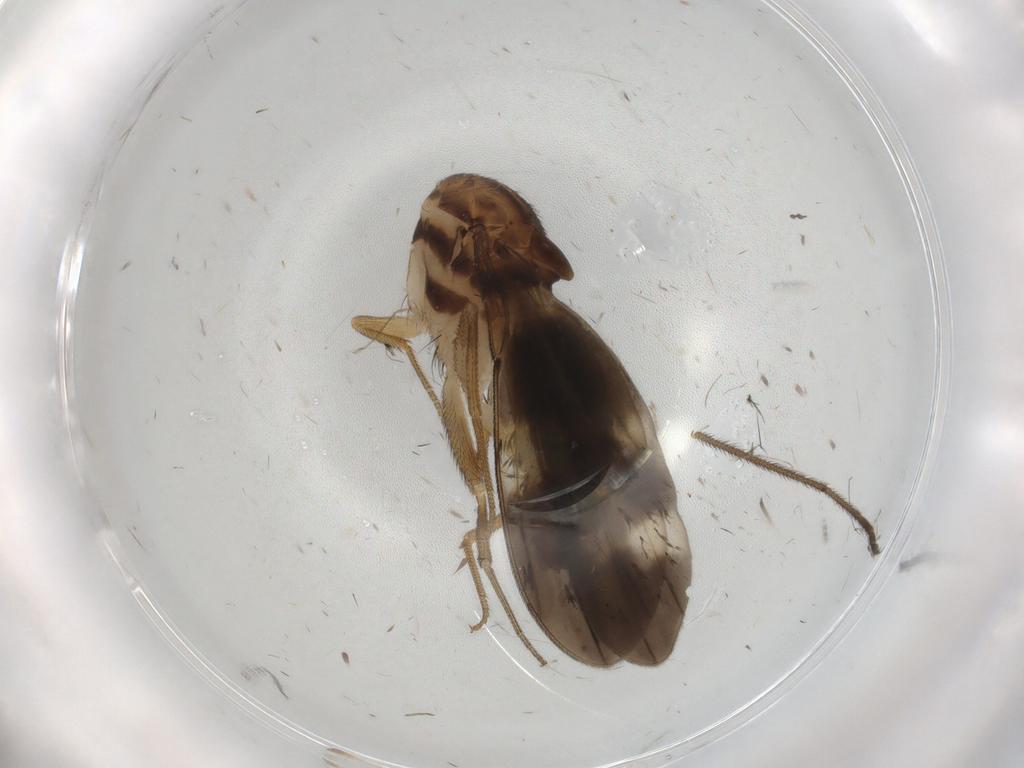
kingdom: Animalia
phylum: Arthropoda
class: Insecta
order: Diptera
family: Drosophilidae
